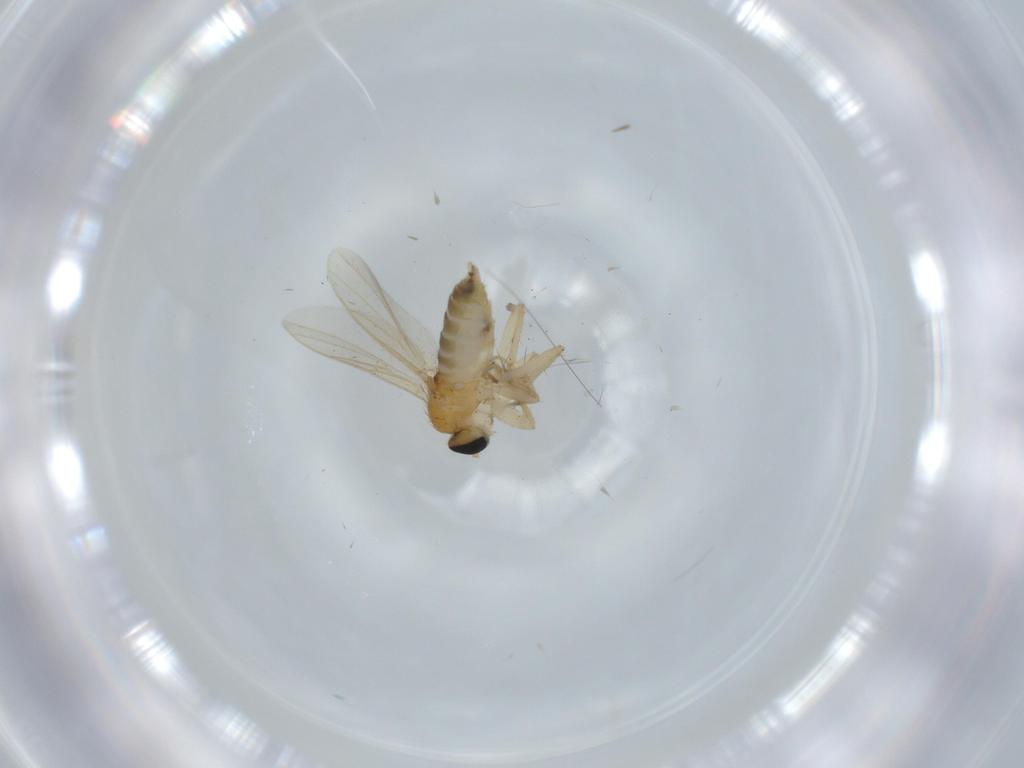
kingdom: Animalia
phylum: Arthropoda
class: Insecta
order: Diptera
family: Hybotidae
